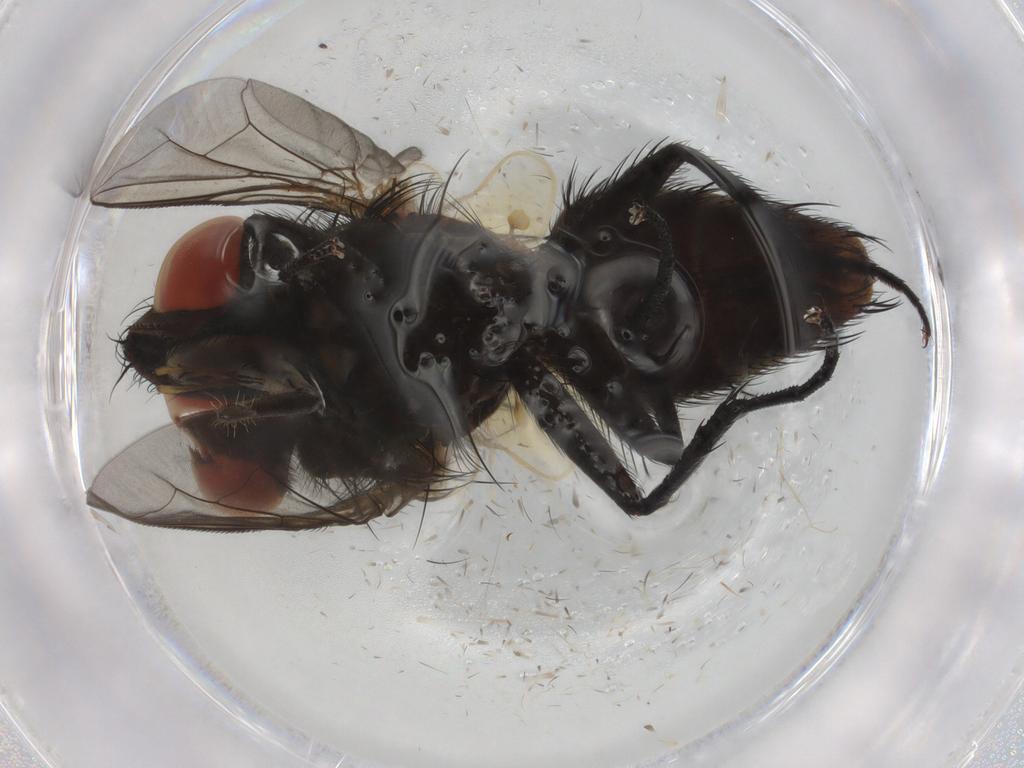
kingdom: Animalia
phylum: Arthropoda
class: Insecta
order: Diptera
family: Sarcophagidae
